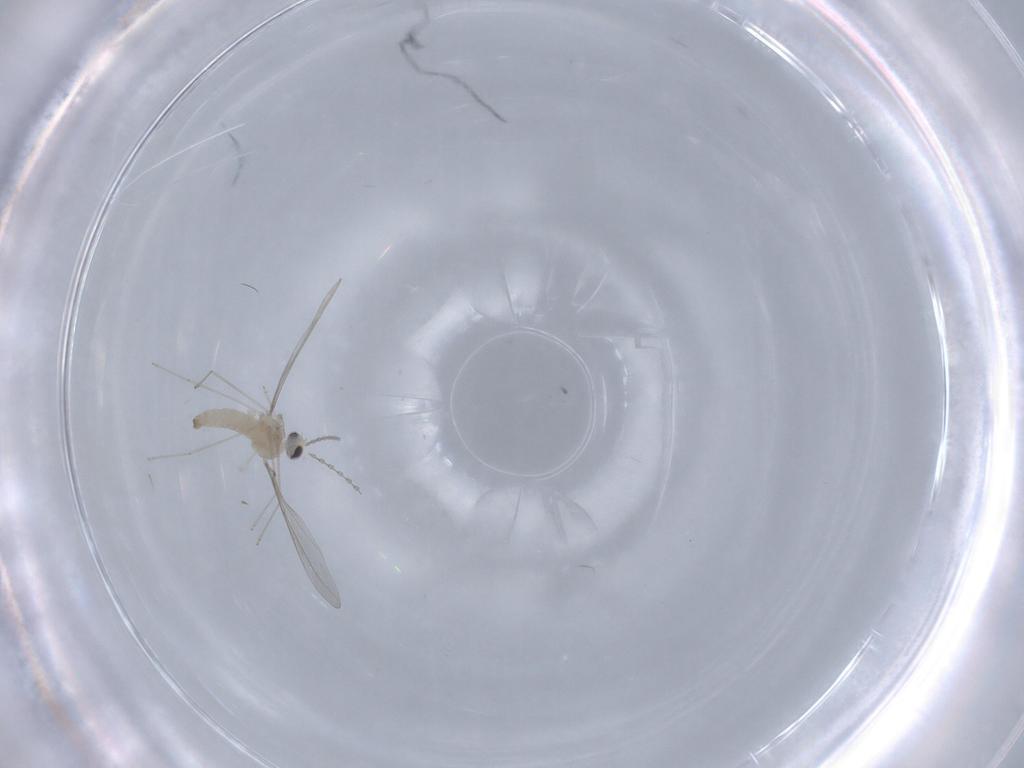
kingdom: Animalia
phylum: Arthropoda
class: Insecta
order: Diptera
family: Cecidomyiidae
